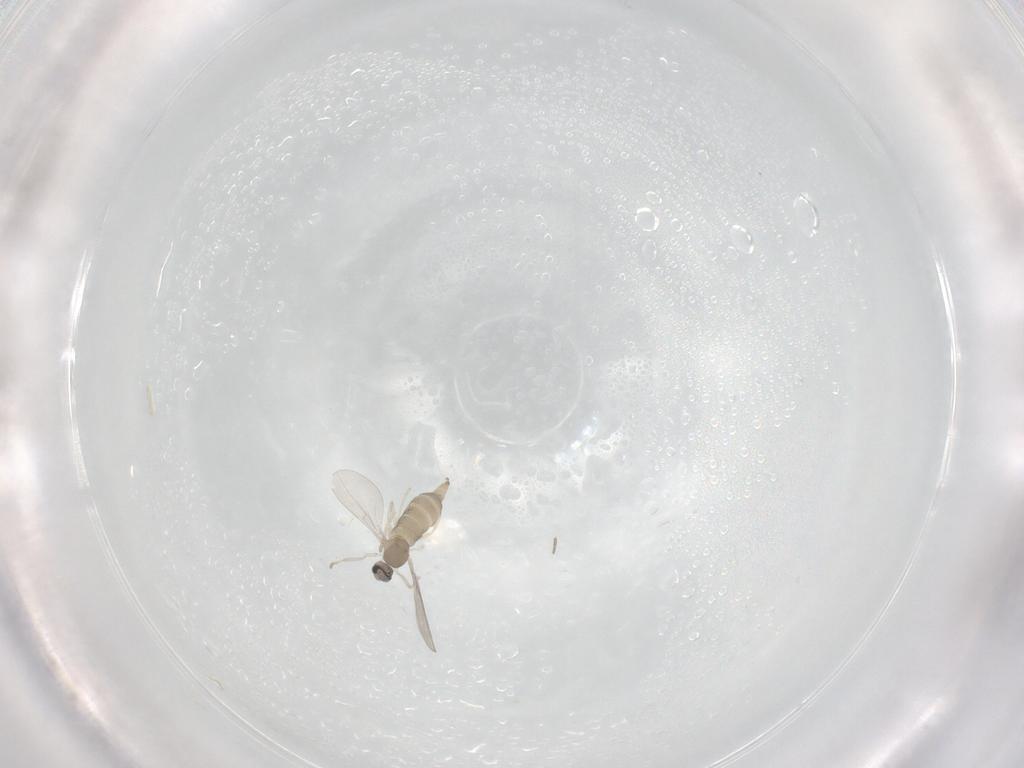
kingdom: Animalia
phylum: Arthropoda
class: Insecta
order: Diptera
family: Cecidomyiidae
